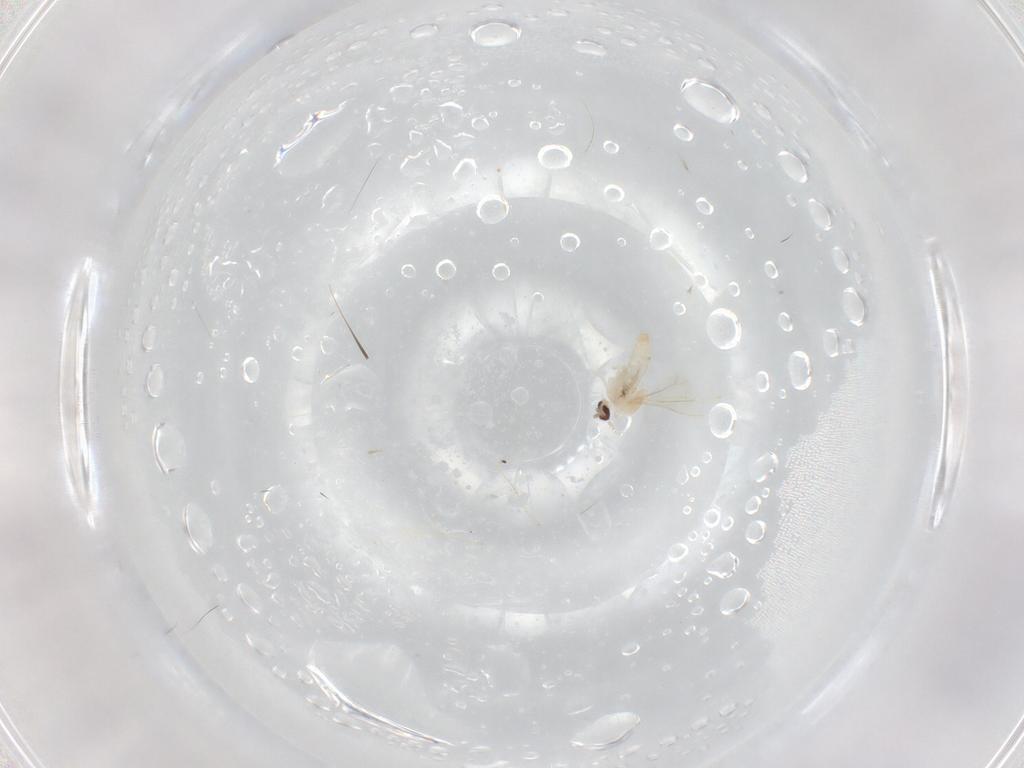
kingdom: Animalia
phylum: Arthropoda
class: Insecta
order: Diptera
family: Cecidomyiidae
